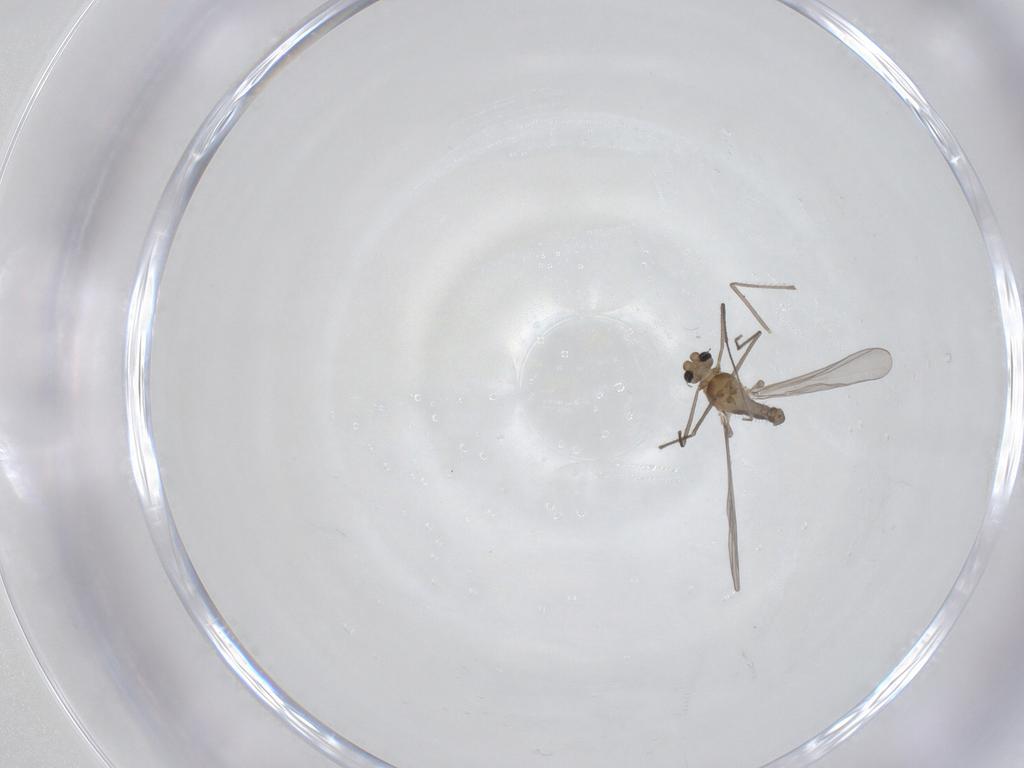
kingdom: Animalia
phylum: Arthropoda
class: Insecta
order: Diptera
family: Chironomidae
